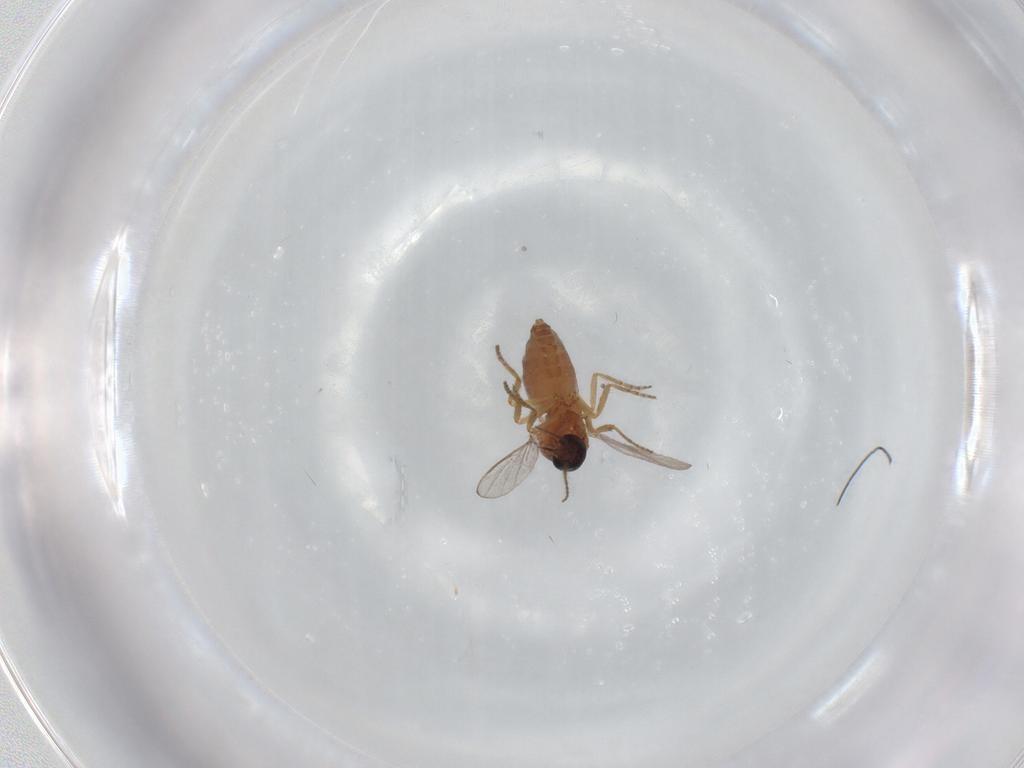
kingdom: Animalia
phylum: Arthropoda
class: Insecta
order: Diptera
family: Ceratopogonidae
